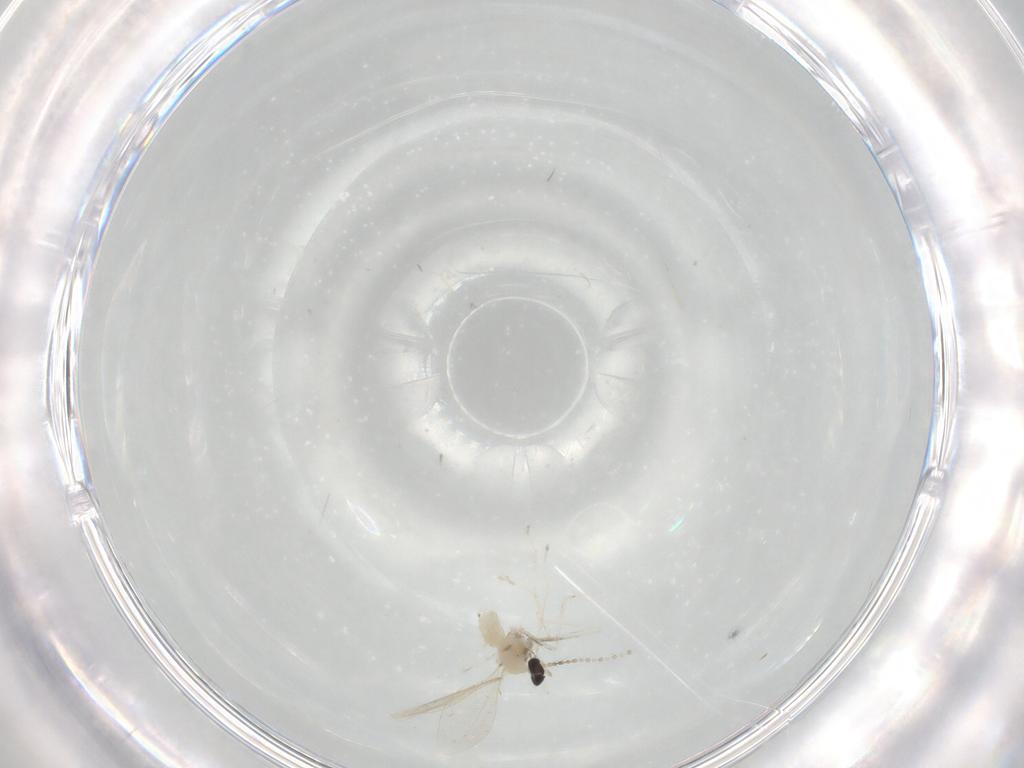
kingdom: Animalia
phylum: Arthropoda
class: Insecta
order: Diptera
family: Cecidomyiidae
